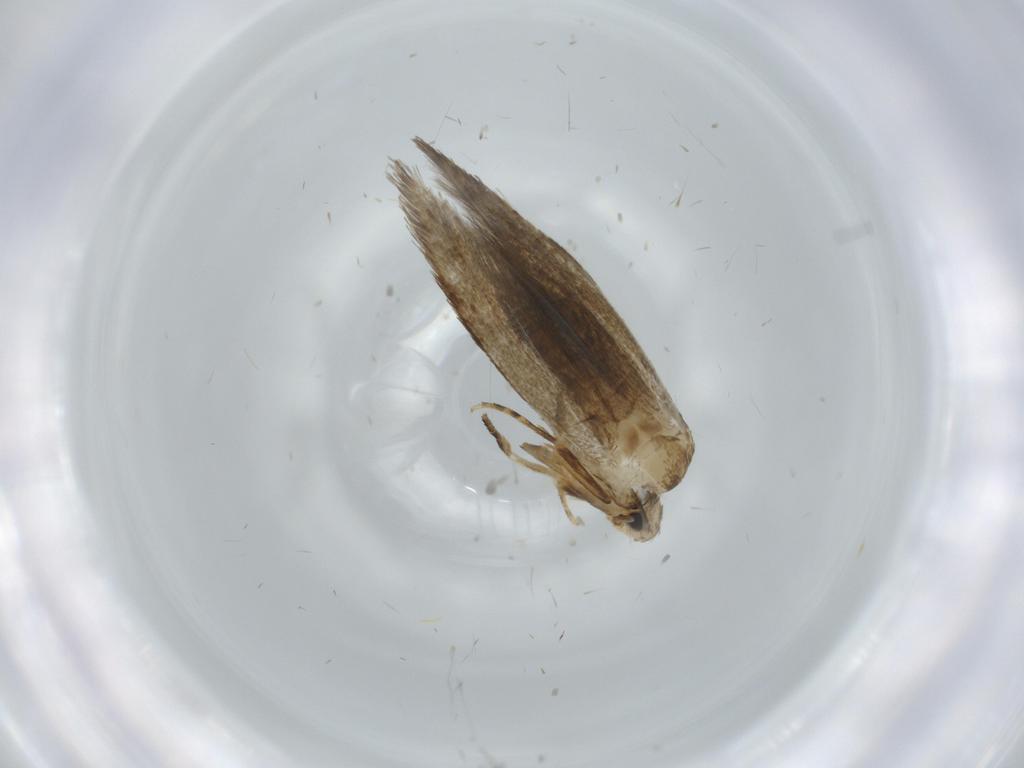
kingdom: Animalia
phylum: Arthropoda
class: Insecta
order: Lepidoptera
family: Tineidae
